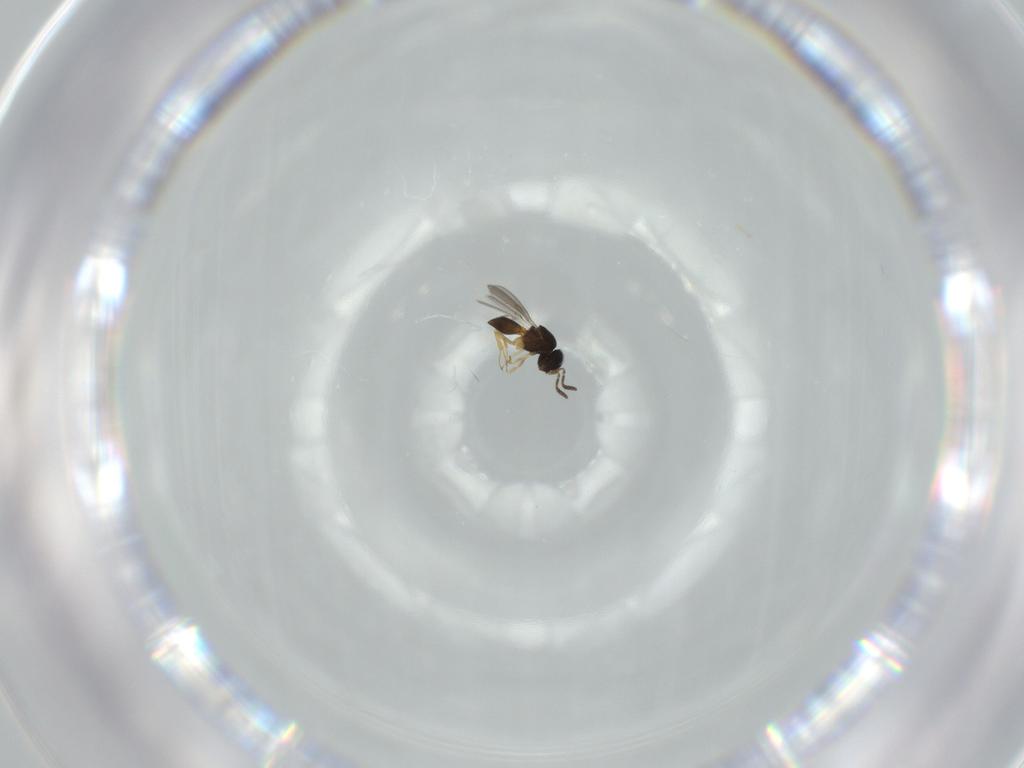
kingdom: Animalia
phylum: Arthropoda
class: Insecta
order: Hymenoptera
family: Scelionidae
